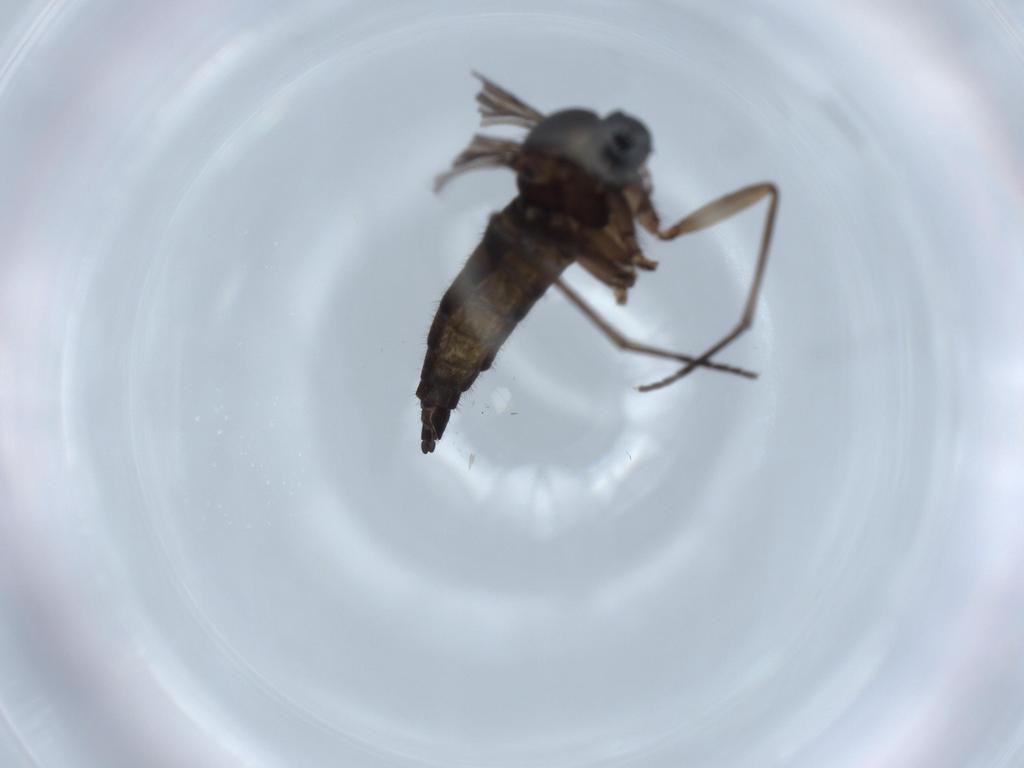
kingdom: Animalia
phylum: Arthropoda
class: Insecta
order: Diptera
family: Sciaridae
